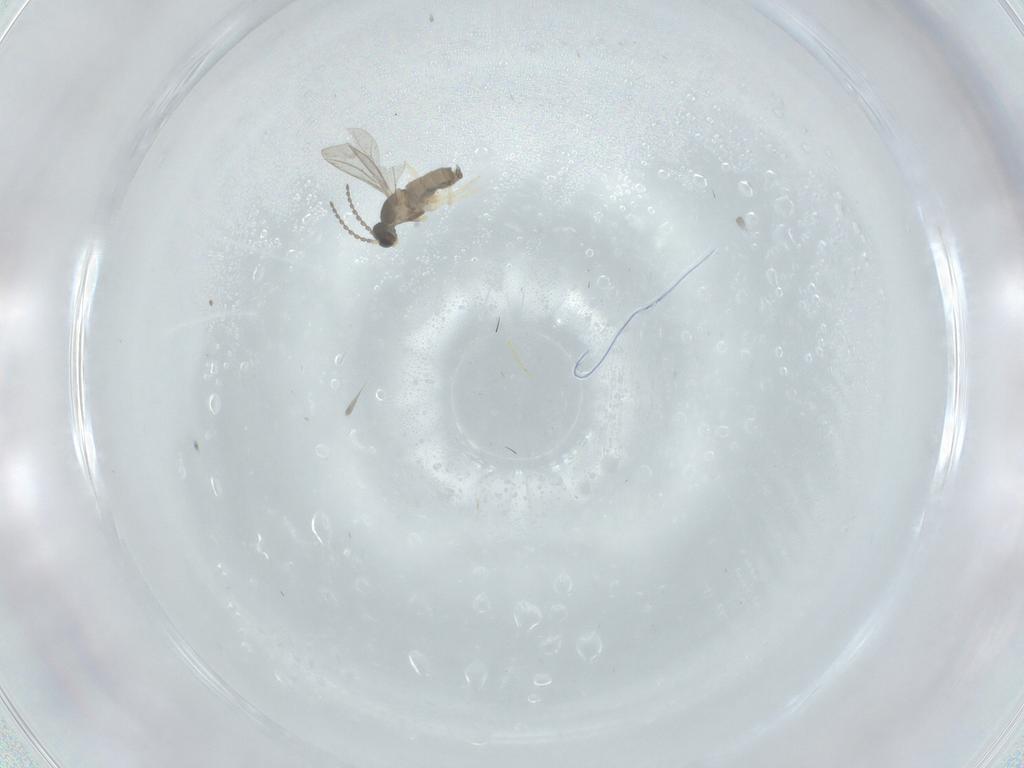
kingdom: Animalia
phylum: Arthropoda
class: Insecta
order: Diptera
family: Phoridae
